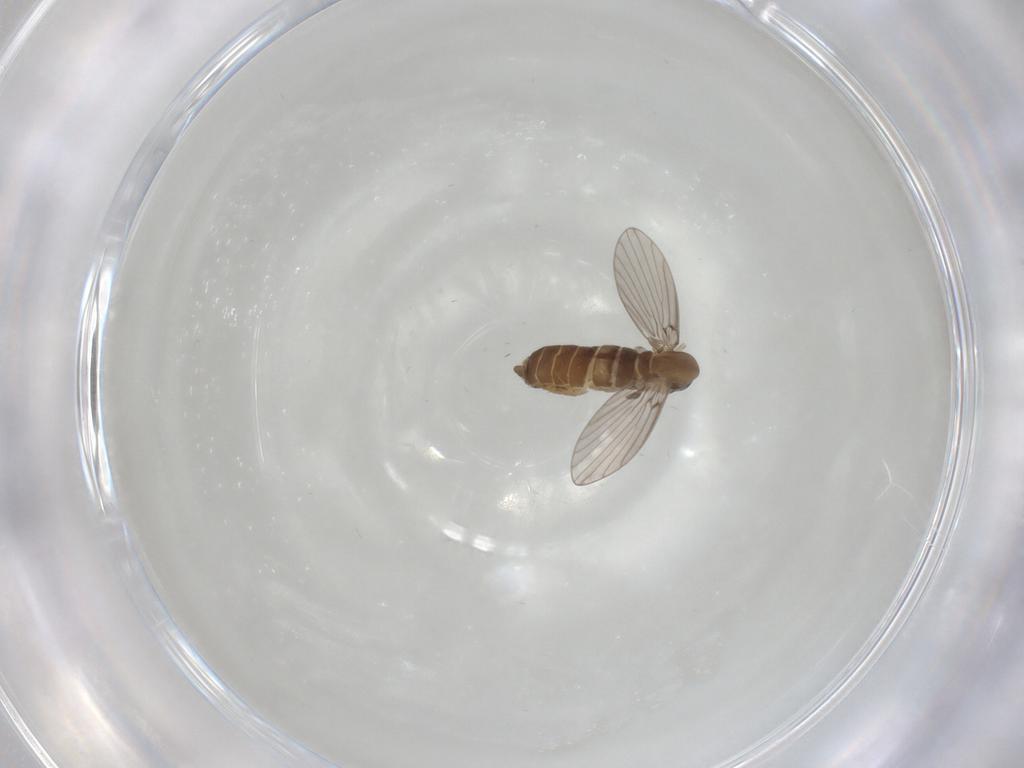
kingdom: Animalia
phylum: Arthropoda
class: Insecta
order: Diptera
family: Psychodidae
